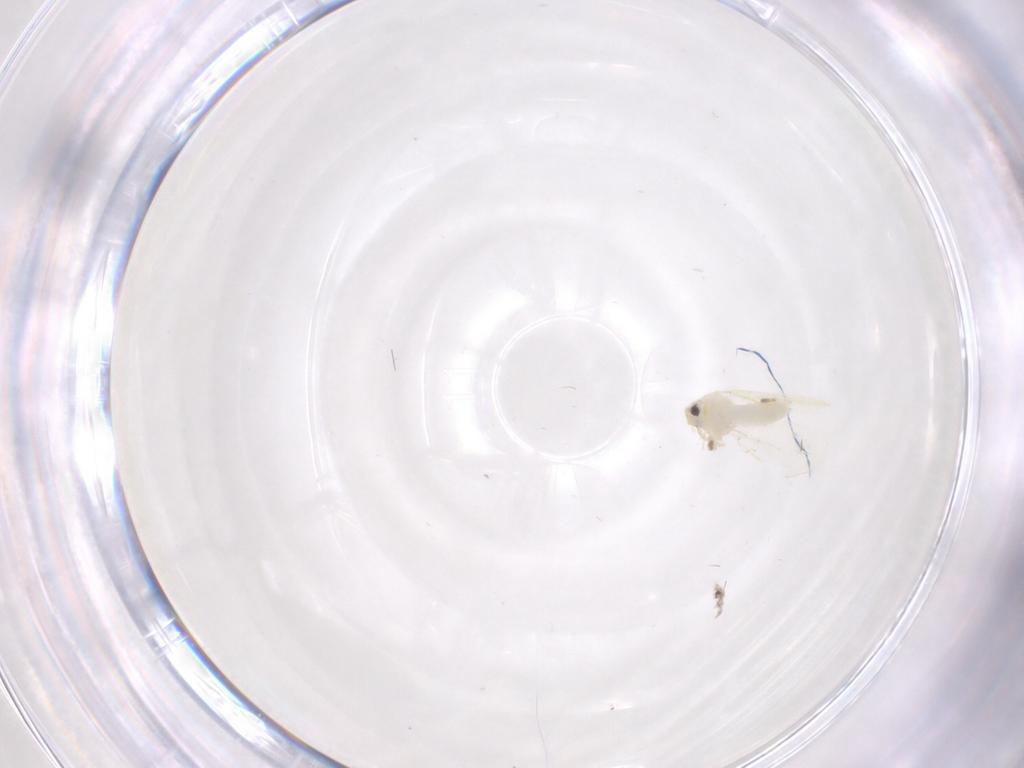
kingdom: Animalia
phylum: Arthropoda
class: Insecta
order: Hemiptera
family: Aleyrodidae
